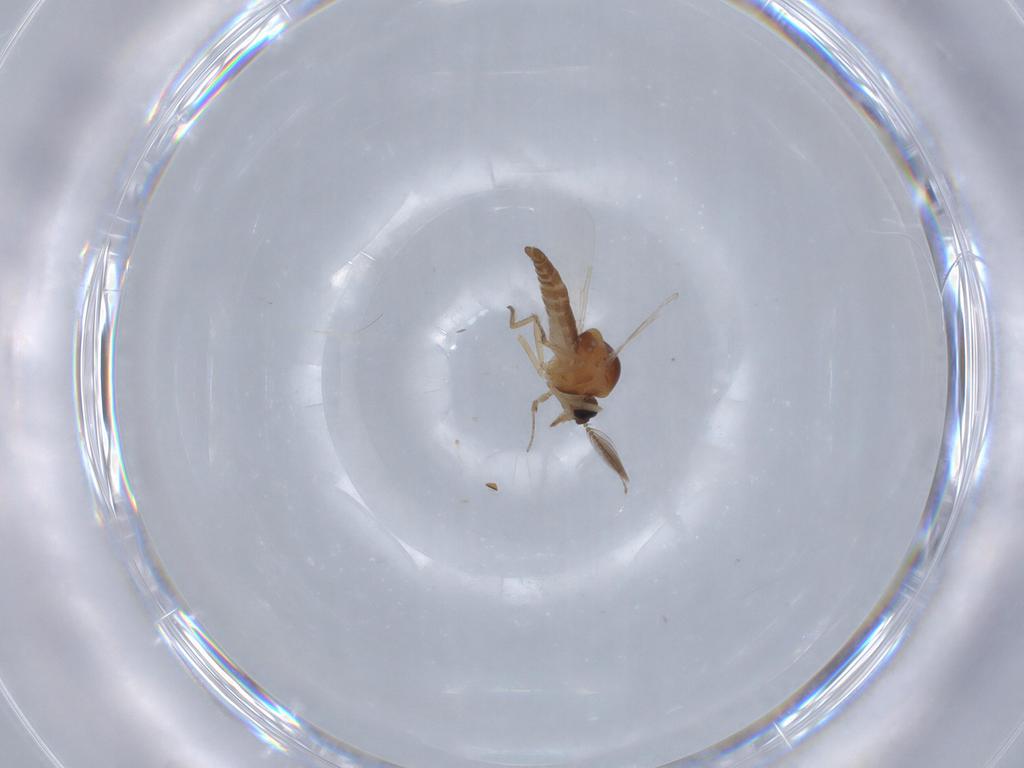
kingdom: Animalia
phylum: Arthropoda
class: Insecta
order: Diptera
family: Ceratopogonidae
